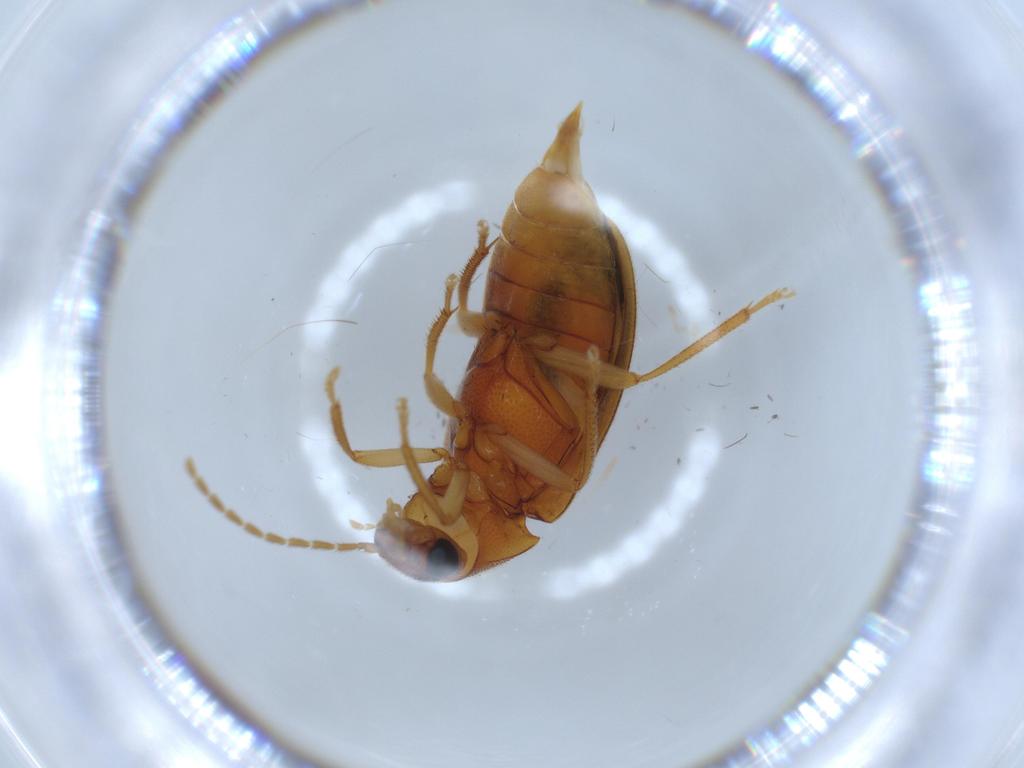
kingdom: Animalia
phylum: Arthropoda
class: Insecta
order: Coleoptera
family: Ptilodactylidae
